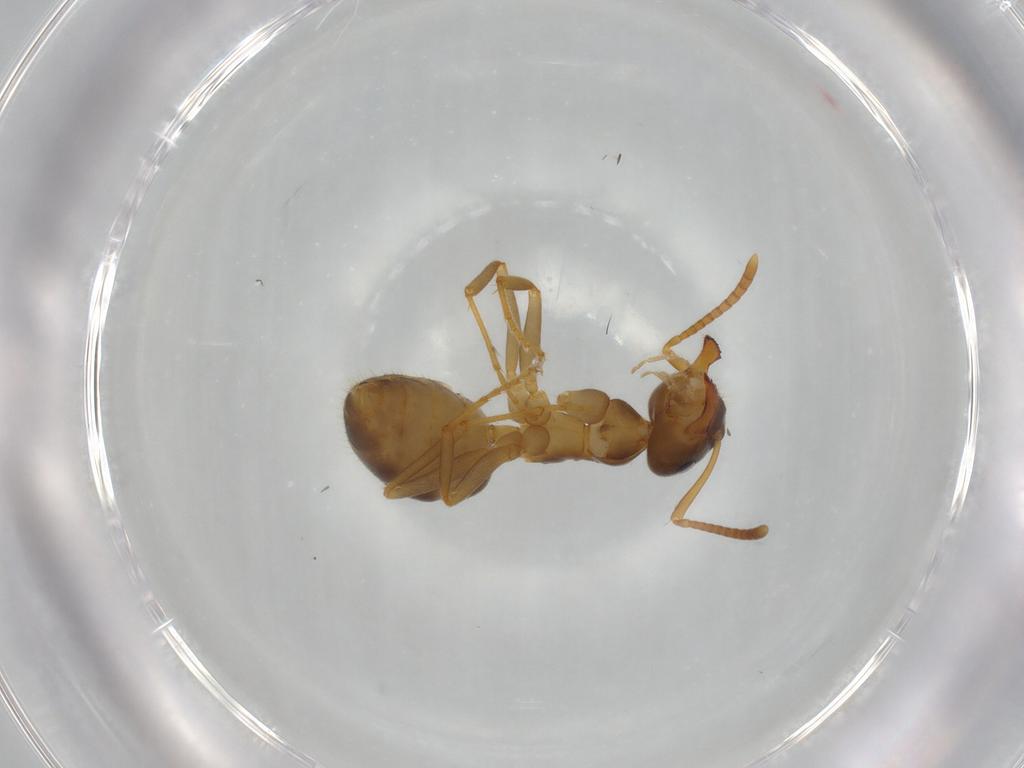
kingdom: Animalia
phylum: Arthropoda
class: Insecta
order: Hymenoptera
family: Formicidae
